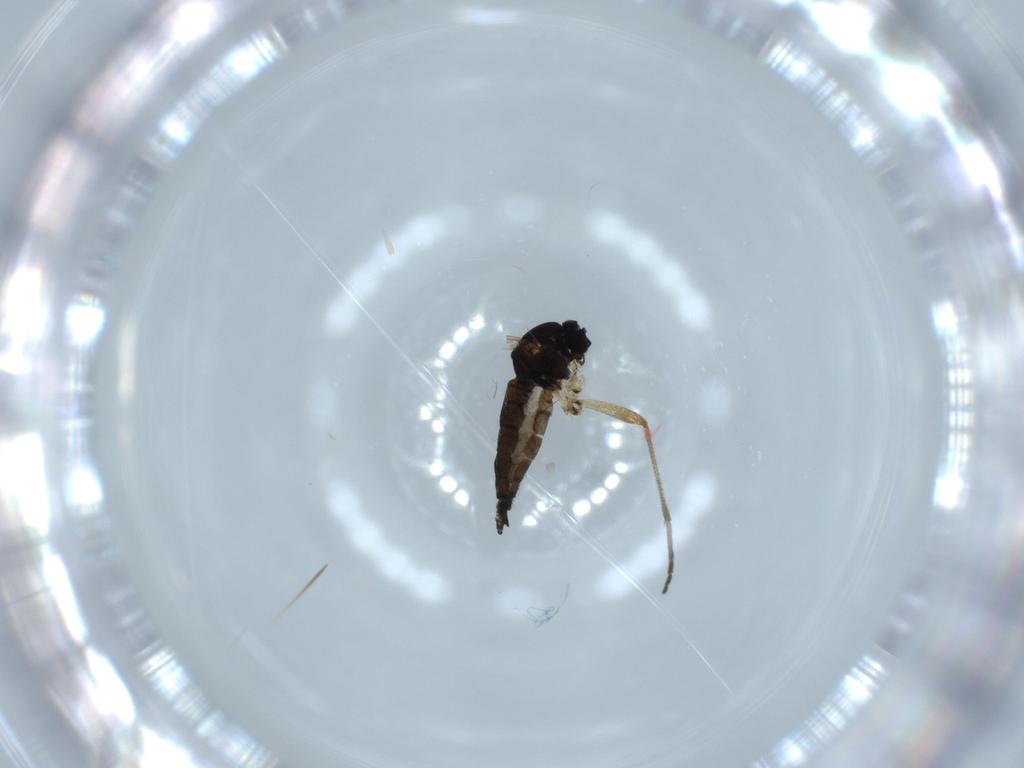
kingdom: Animalia
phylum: Arthropoda
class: Insecta
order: Diptera
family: Sciaridae
